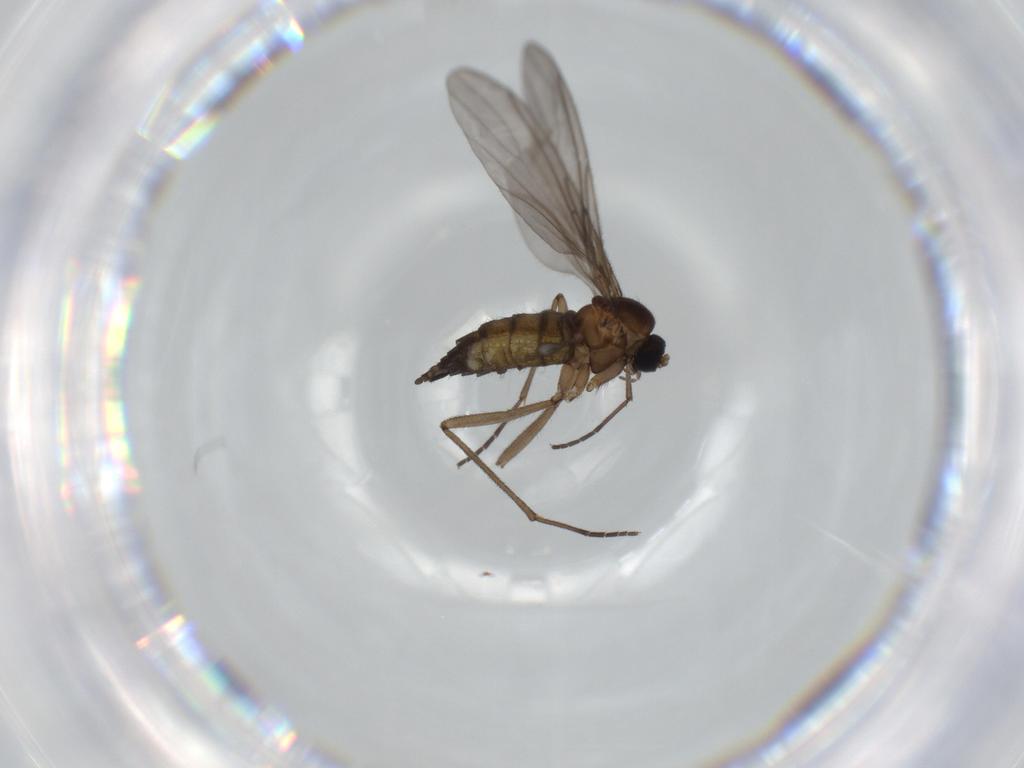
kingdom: Animalia
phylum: Arthropoda
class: Insecta
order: Diptera
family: Sciaridae
